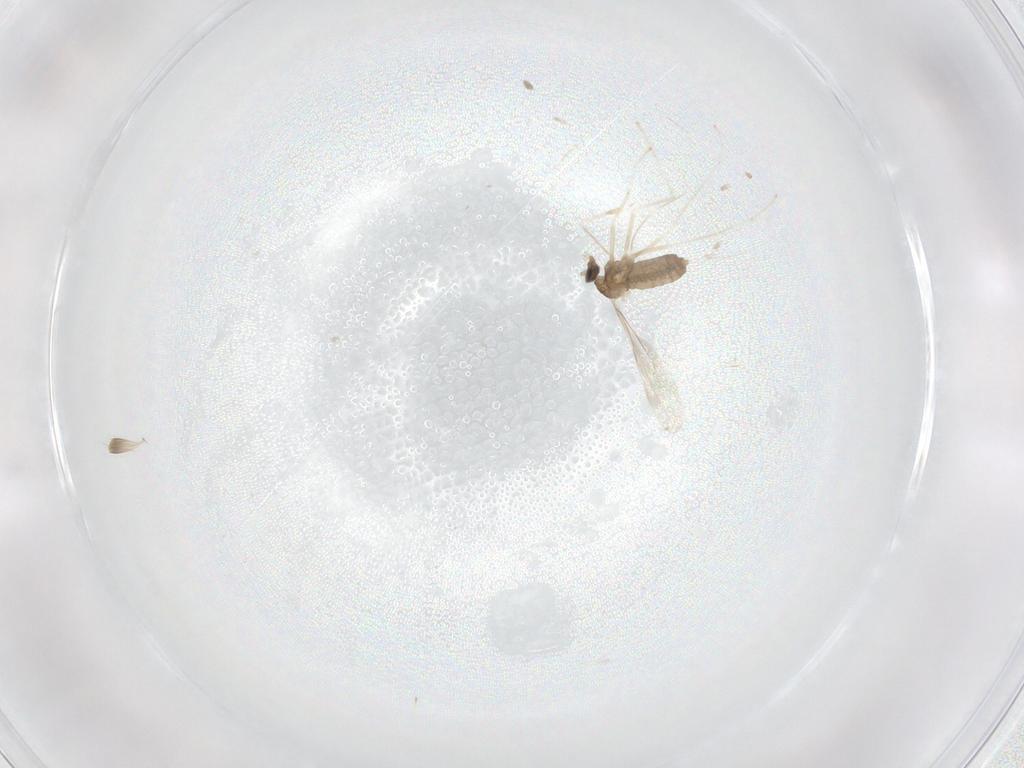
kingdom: Animalia
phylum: Arthropoda
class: Insecta
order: Diptera
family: Cecidomyiidae
